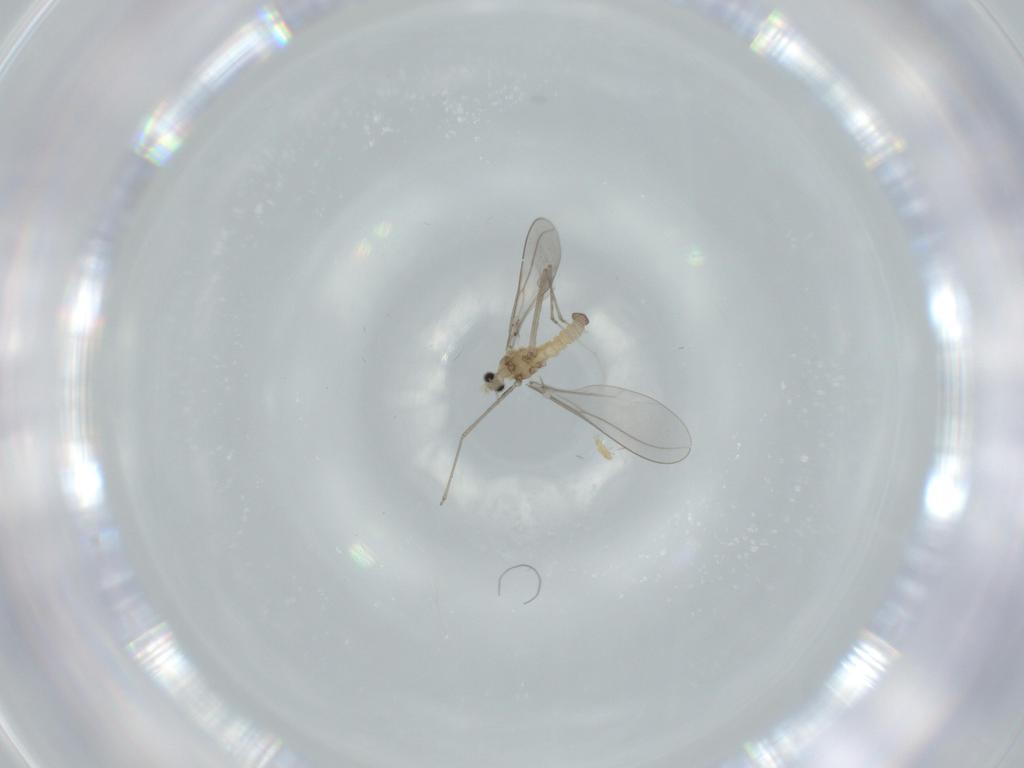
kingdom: Animalia
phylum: Arthropoda
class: Insecta
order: Diptera
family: Cecidomyiidae
